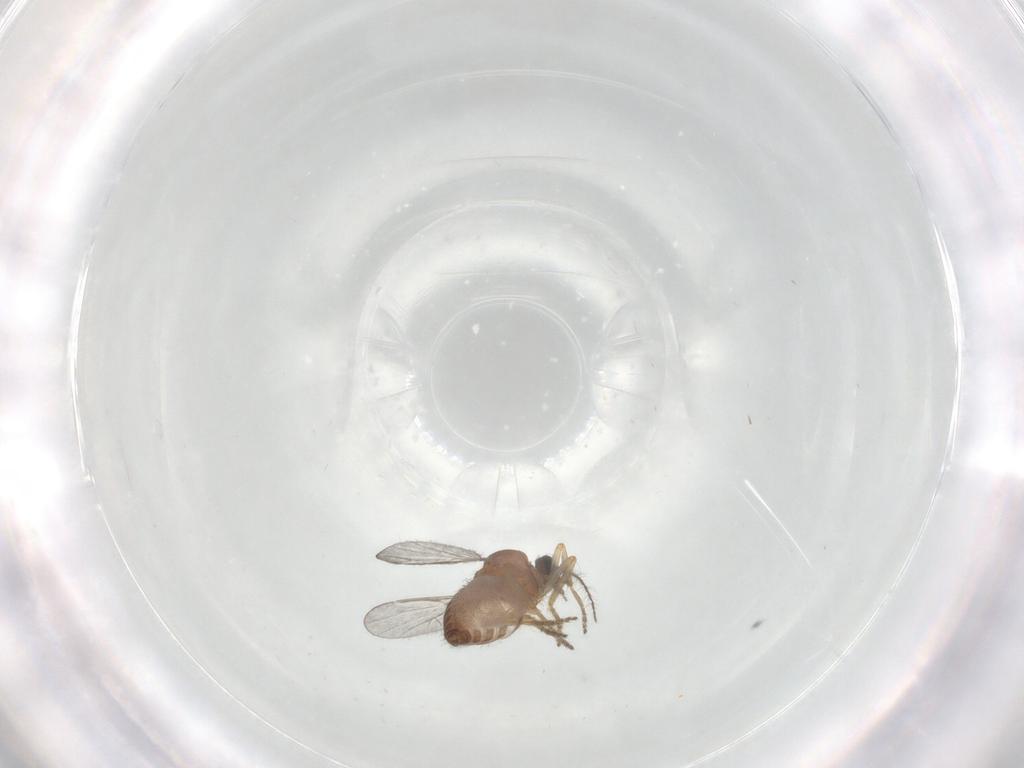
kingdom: Animalia
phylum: Arthropoda
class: Insecta
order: Diptera
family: Ceratopogonidae
